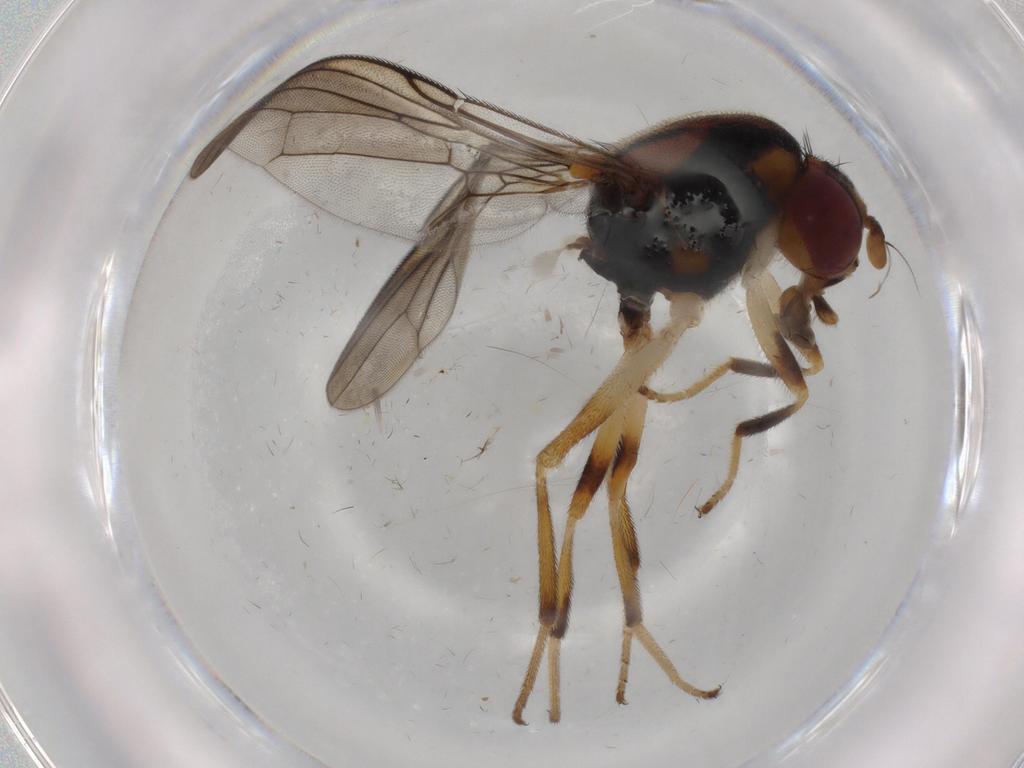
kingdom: Animalia
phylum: Arthropoda
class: Insecta
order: Diptera
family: Psilidae
